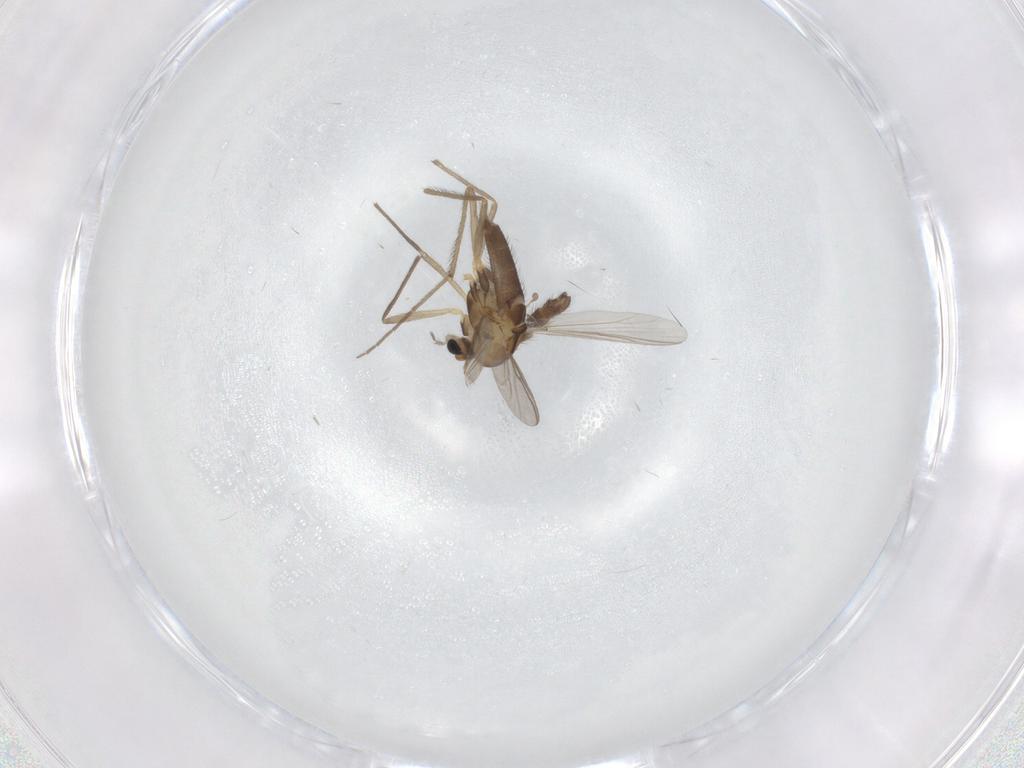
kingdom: Animalia
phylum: Arthropoda
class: Insecta
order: Diptera
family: Chironomidae
